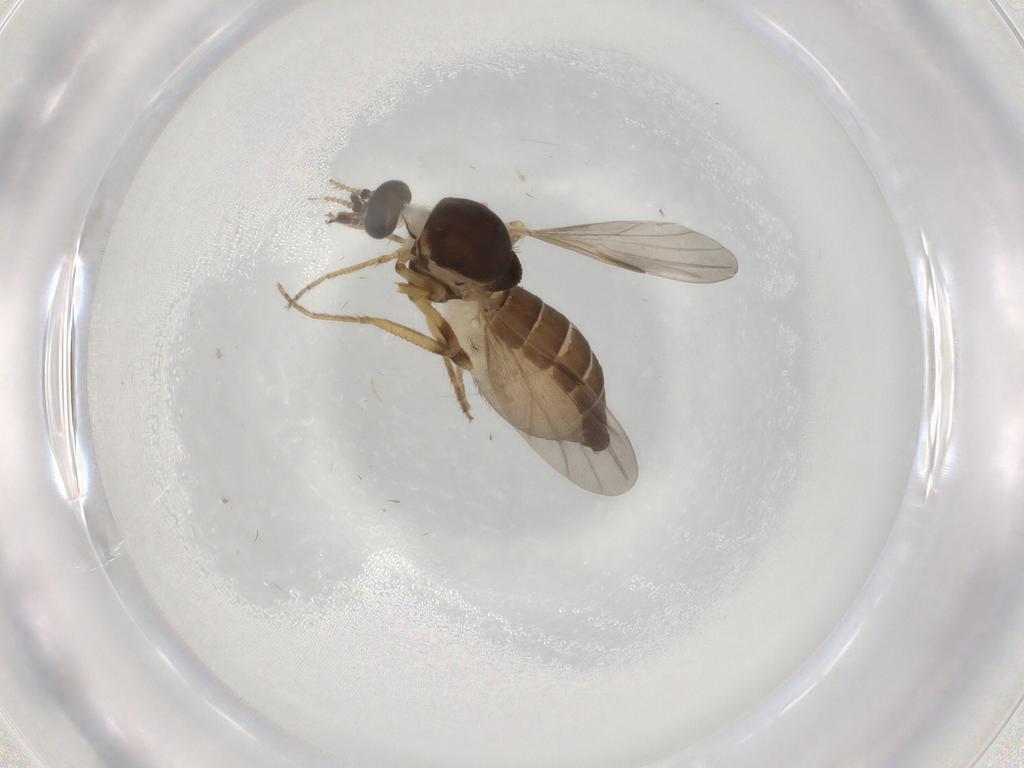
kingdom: Animalia
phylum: Arthropoda
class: Insecta
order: Diptera
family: Ceratopogonidae
